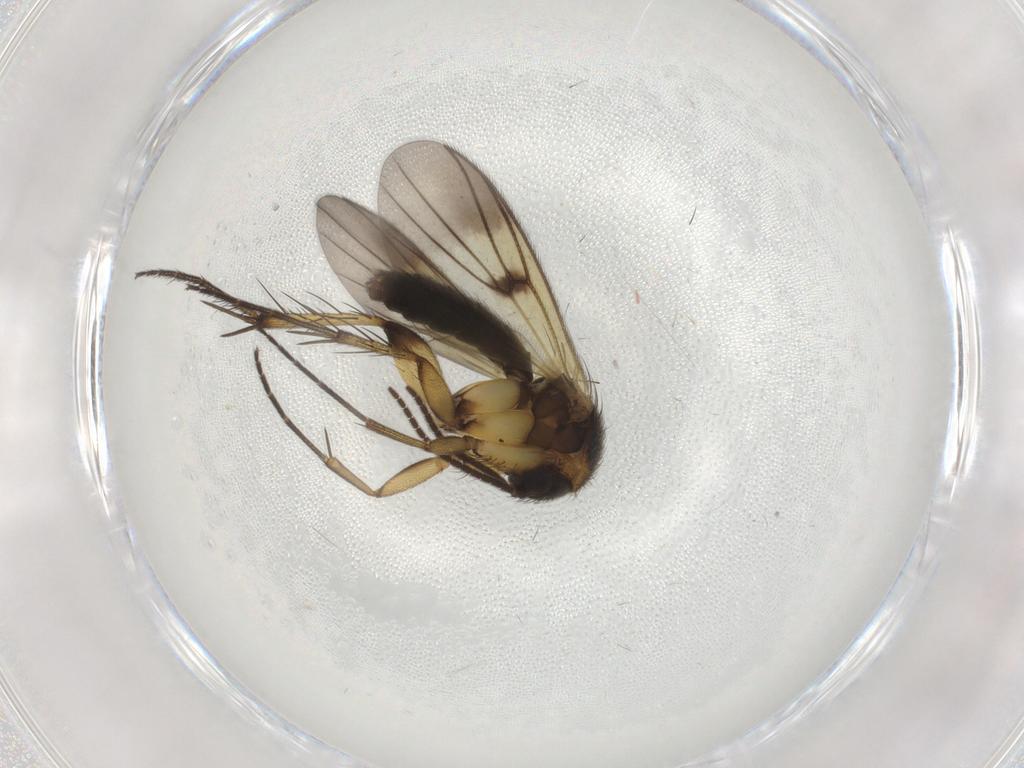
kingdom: Animalia
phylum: Arthropoda
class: Insecta
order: Diptera
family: Mycetophilidae
